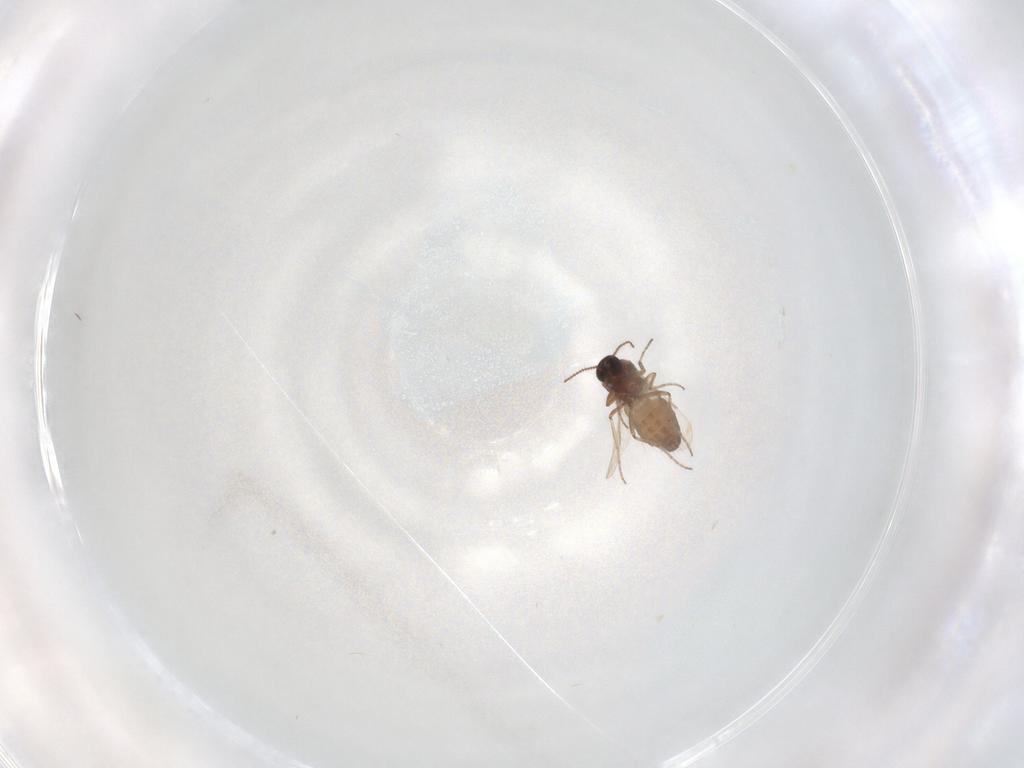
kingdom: Animalia
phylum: Arthropoda
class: Insecta
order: Diptera
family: Ceratopogonidae
